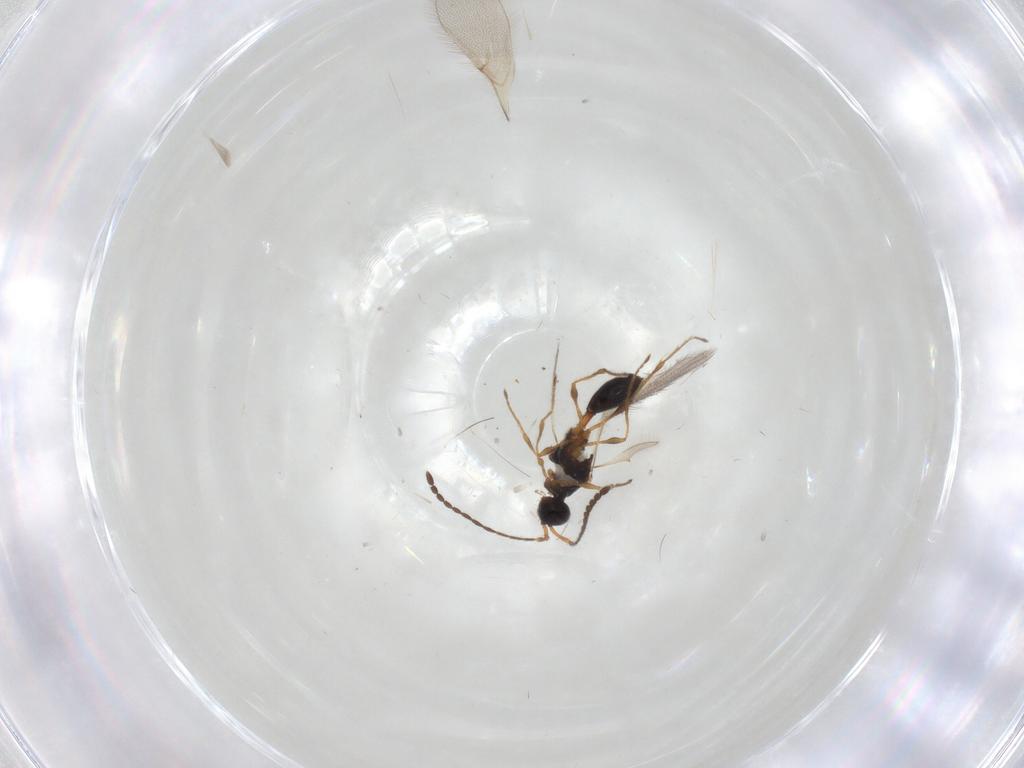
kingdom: Animalia
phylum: Arthropoda
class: Insecta
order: Hymenoptera
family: Diapriidae
